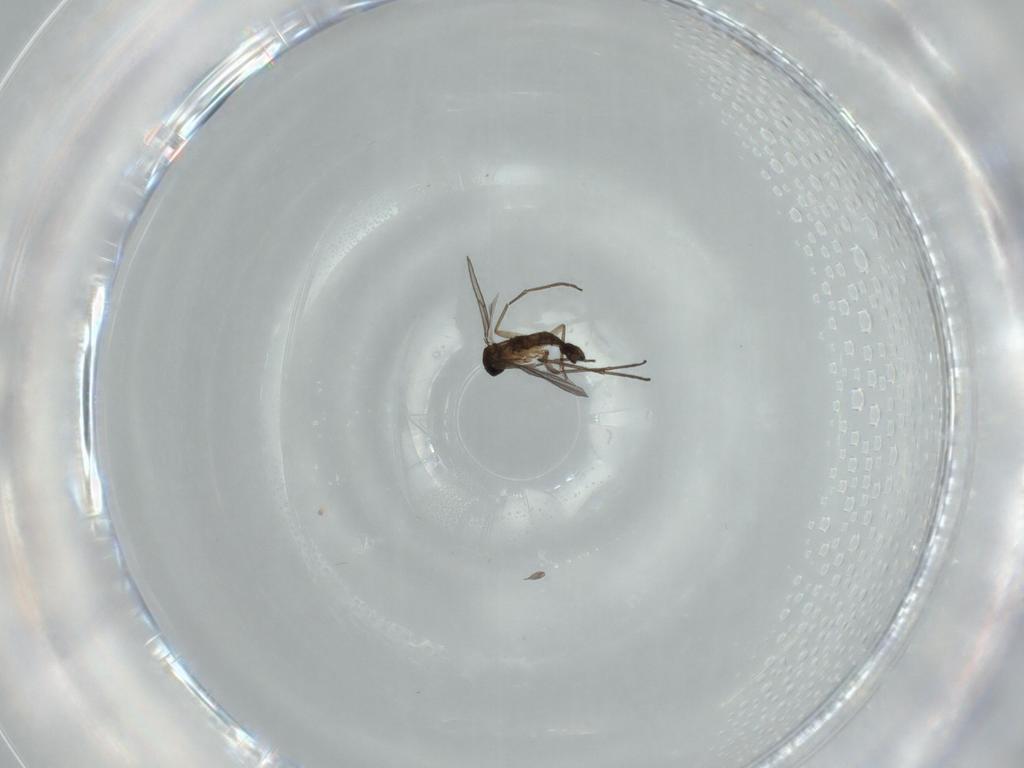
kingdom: Animalia
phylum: Arthropoda
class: Insecta
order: Diptera
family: Sciaridae
